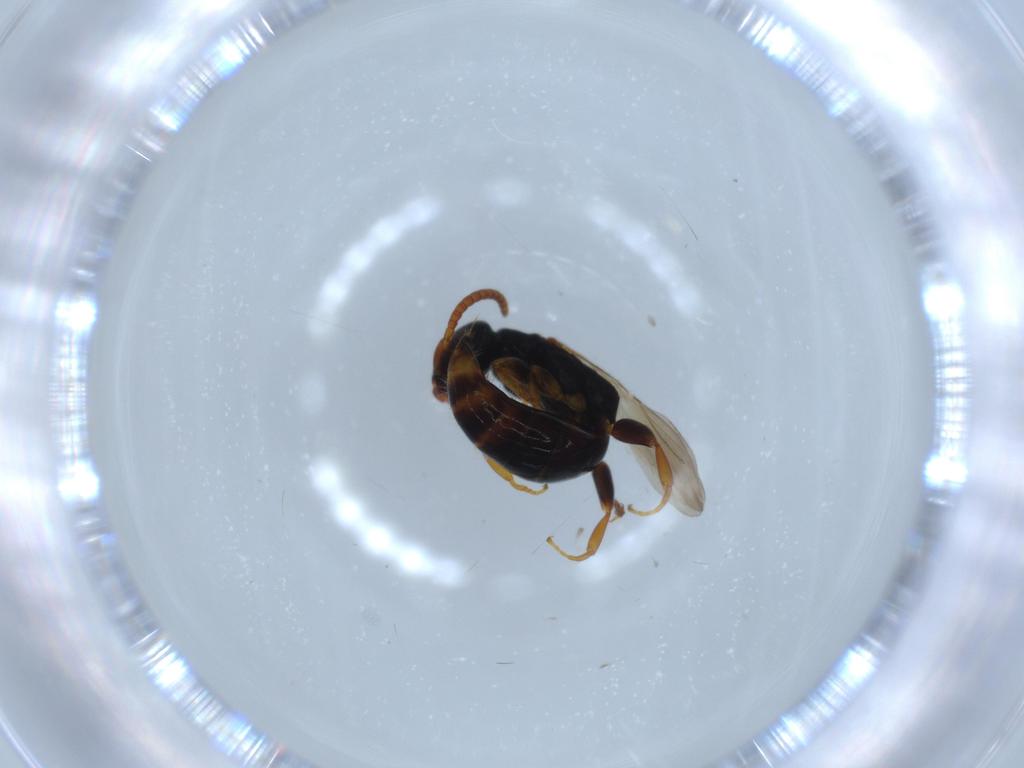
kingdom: Animalia
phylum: Arthropoda
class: Insecta
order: Hymenoptera
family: Bethylidae
